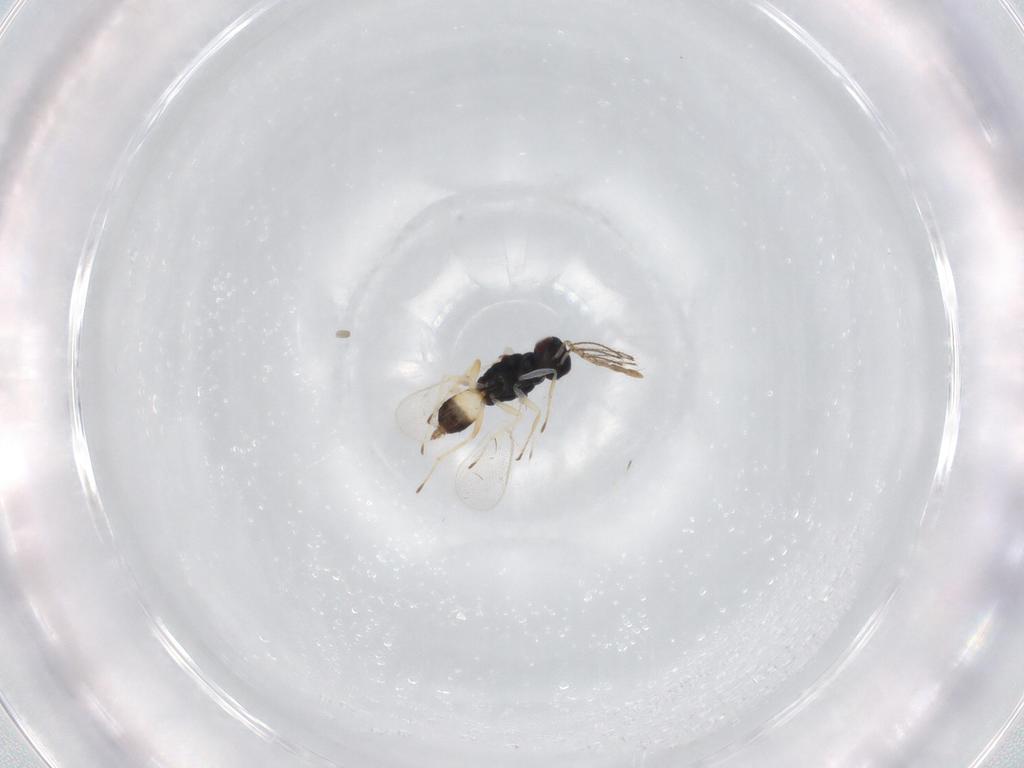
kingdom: Animalia
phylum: Arthropoda
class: Insecta
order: Hymenoptera
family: Eulophidae
